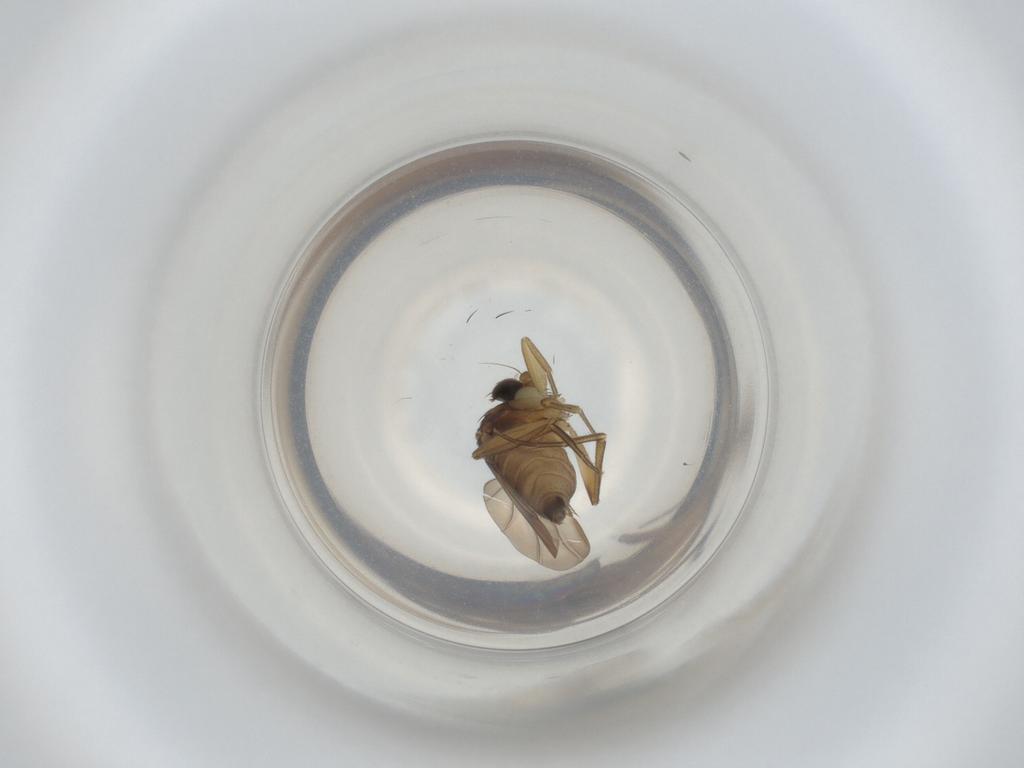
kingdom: Animalia
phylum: Arthropoda
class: Insecta
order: Diptera
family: Phoridae
